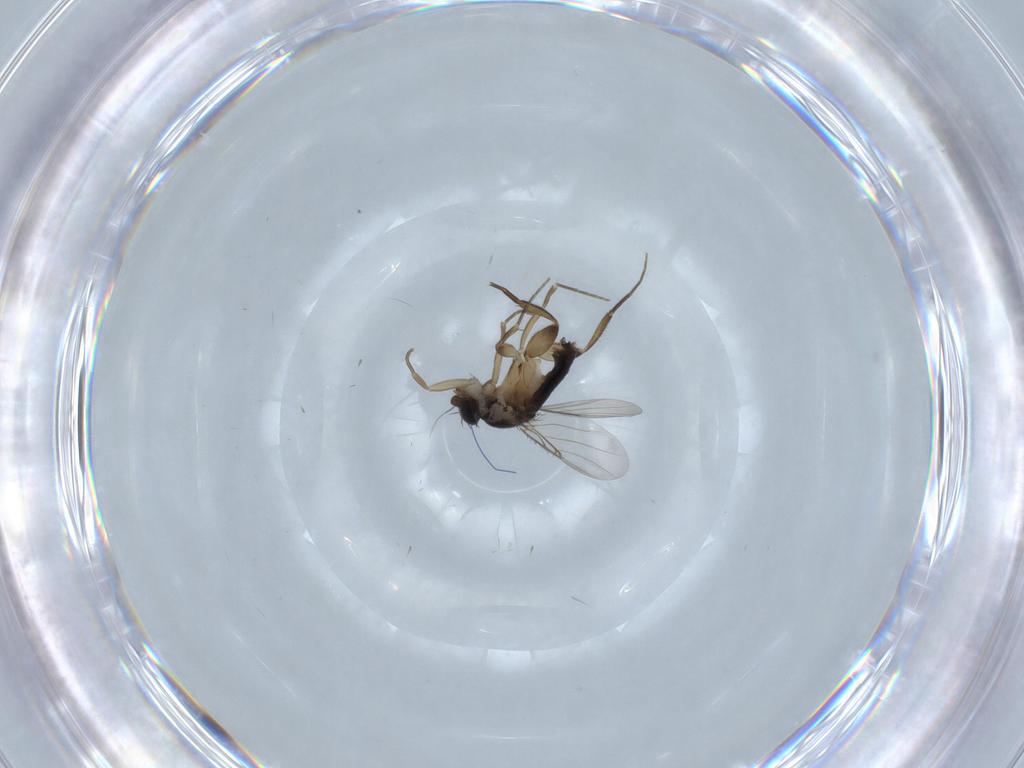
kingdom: Animalia
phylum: Arthropoda
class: Insecta
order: Diptera
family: Phoridae
